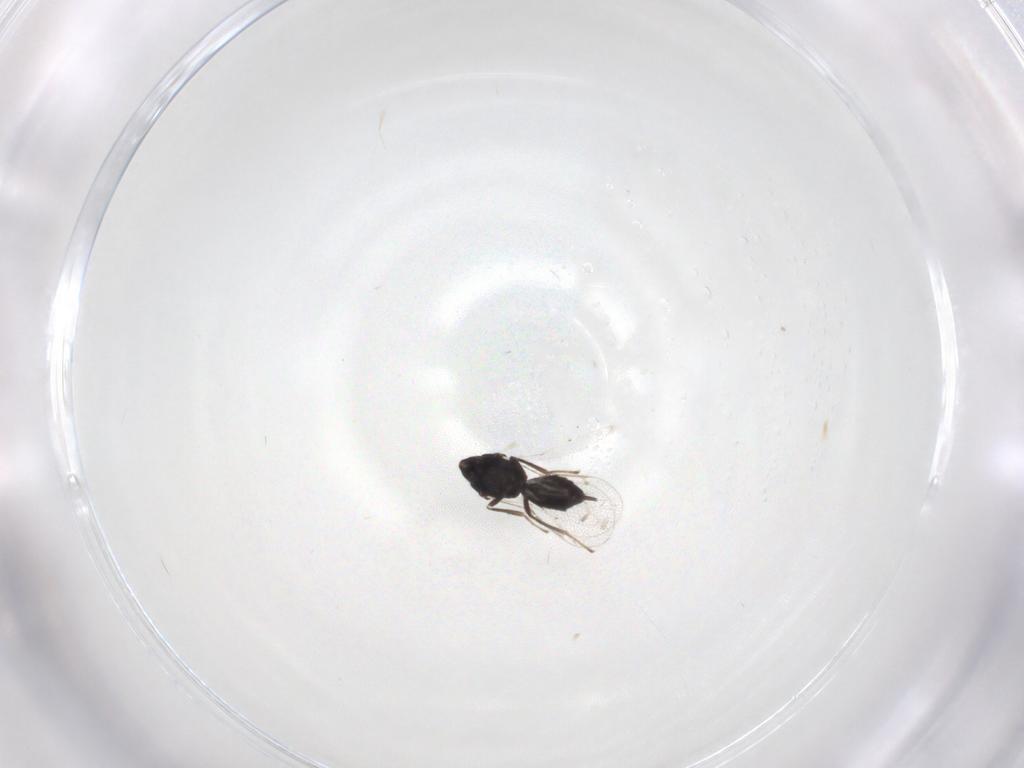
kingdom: Animalia
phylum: Arthropoda
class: Insecta
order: Hymenoptera
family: Pteromalidae
